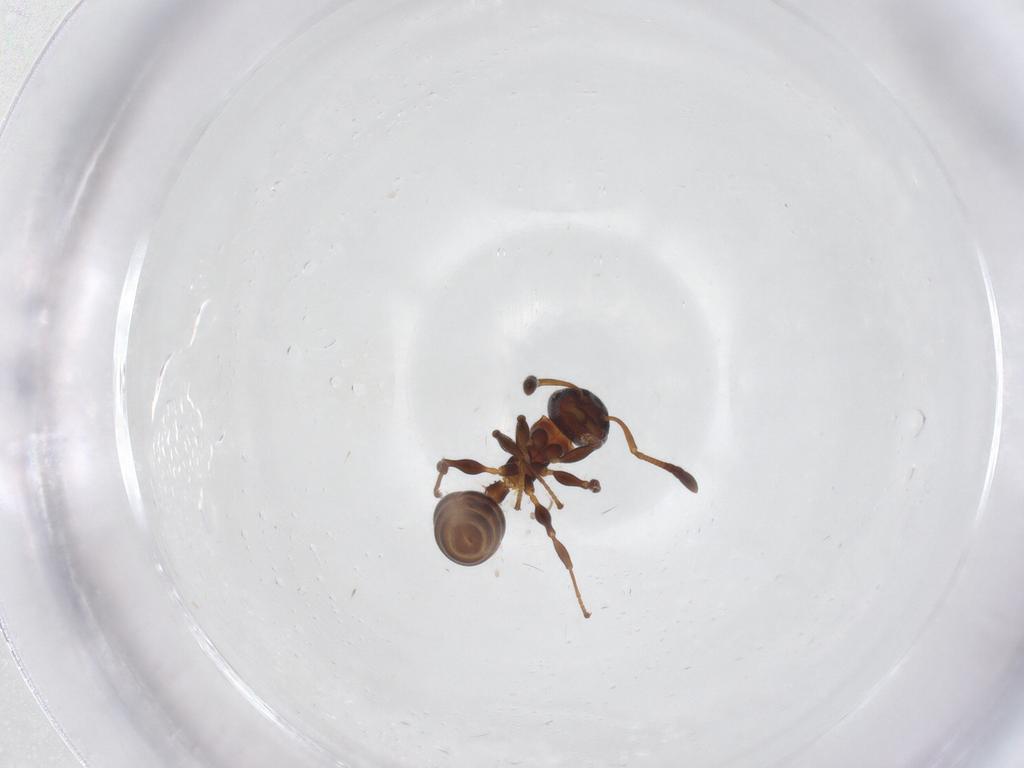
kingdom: Animalia
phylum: Arthropoda
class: Insecta
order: Hymenoptera
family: Formicidae
